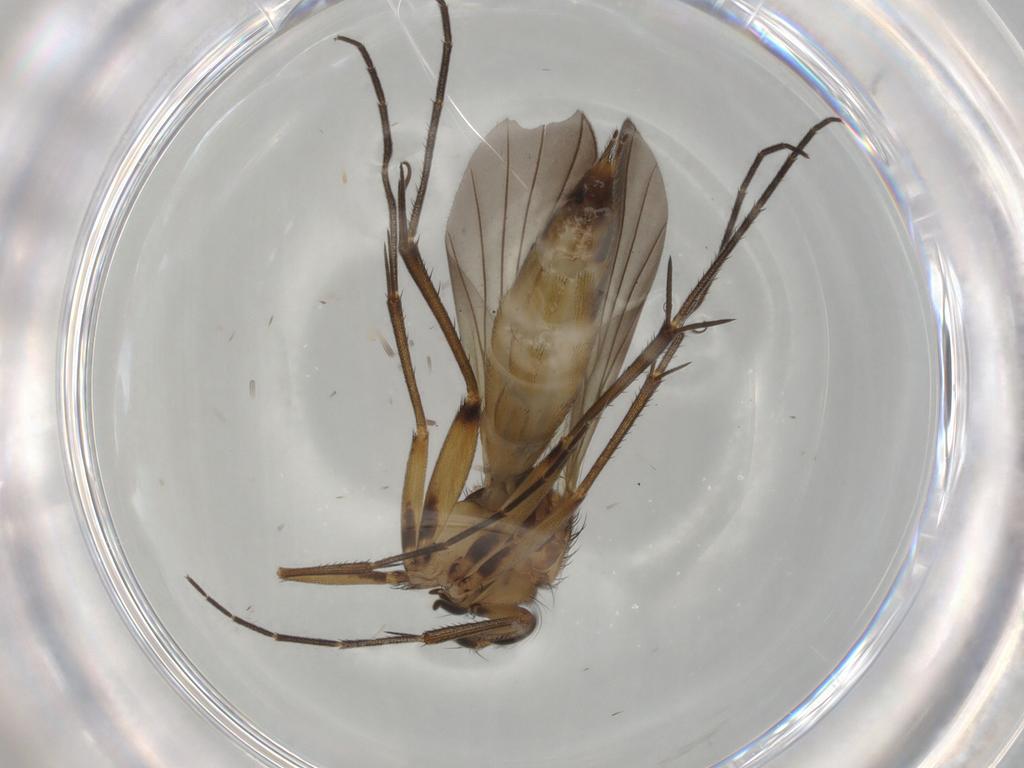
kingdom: Animalia
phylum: Arthropoda
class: Insecta
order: Diptera
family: Mycetophilidae
